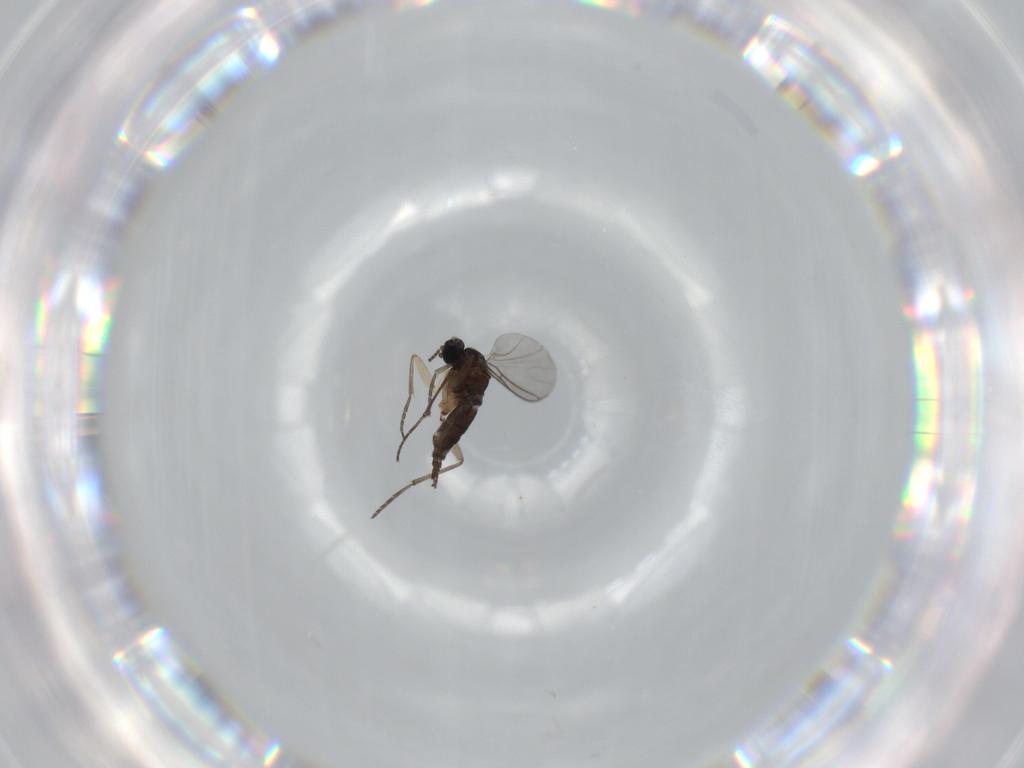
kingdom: Animalia
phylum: Arthropoda
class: Insecta
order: Diptera
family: Sciaridae
